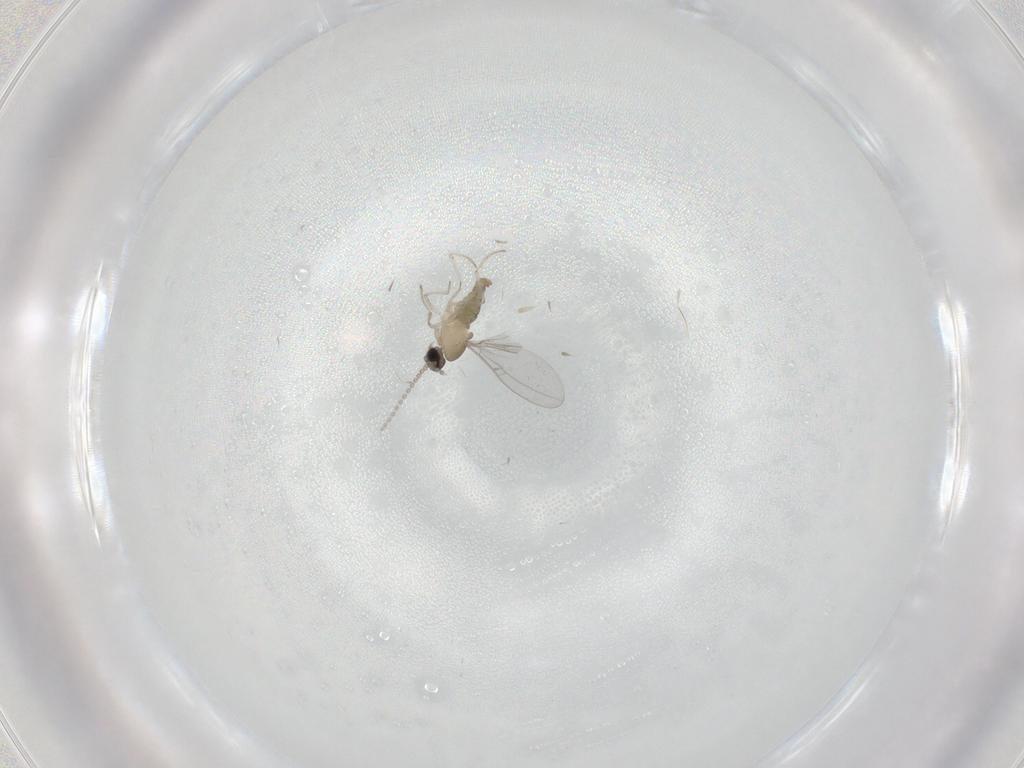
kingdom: Animalia
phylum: Arthropoda
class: Insecta
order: Diptera
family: Cecidomyiidae
